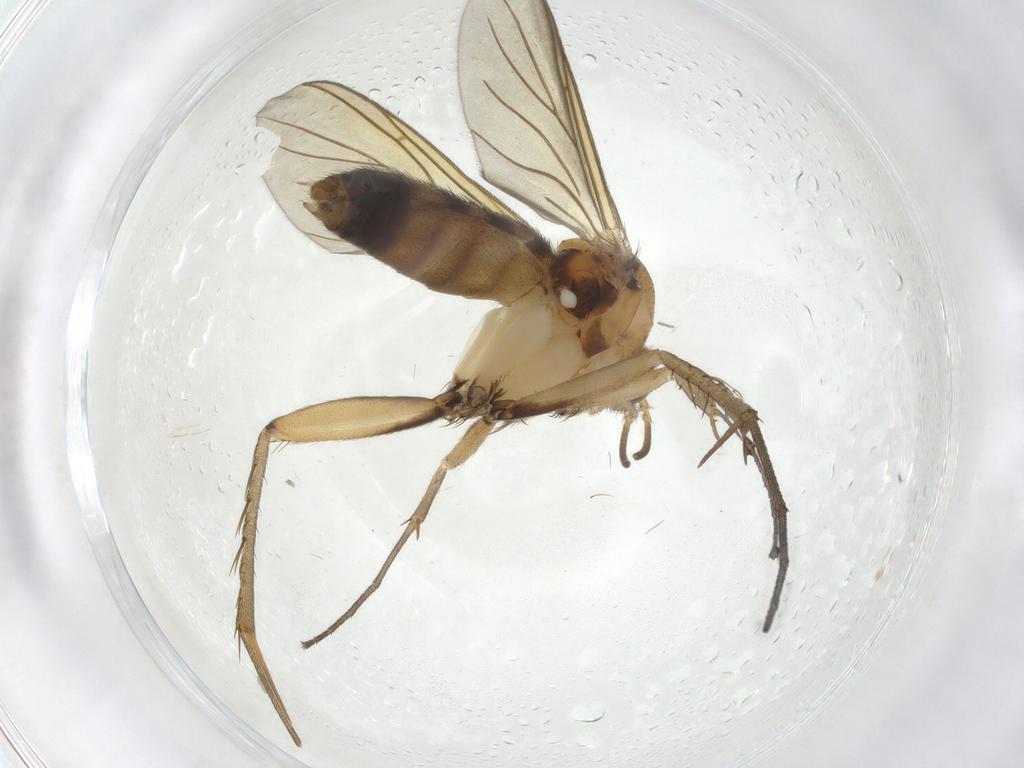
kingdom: Animalia
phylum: Arthropoda
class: Insecta
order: Diptera
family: Mycetophilidae
